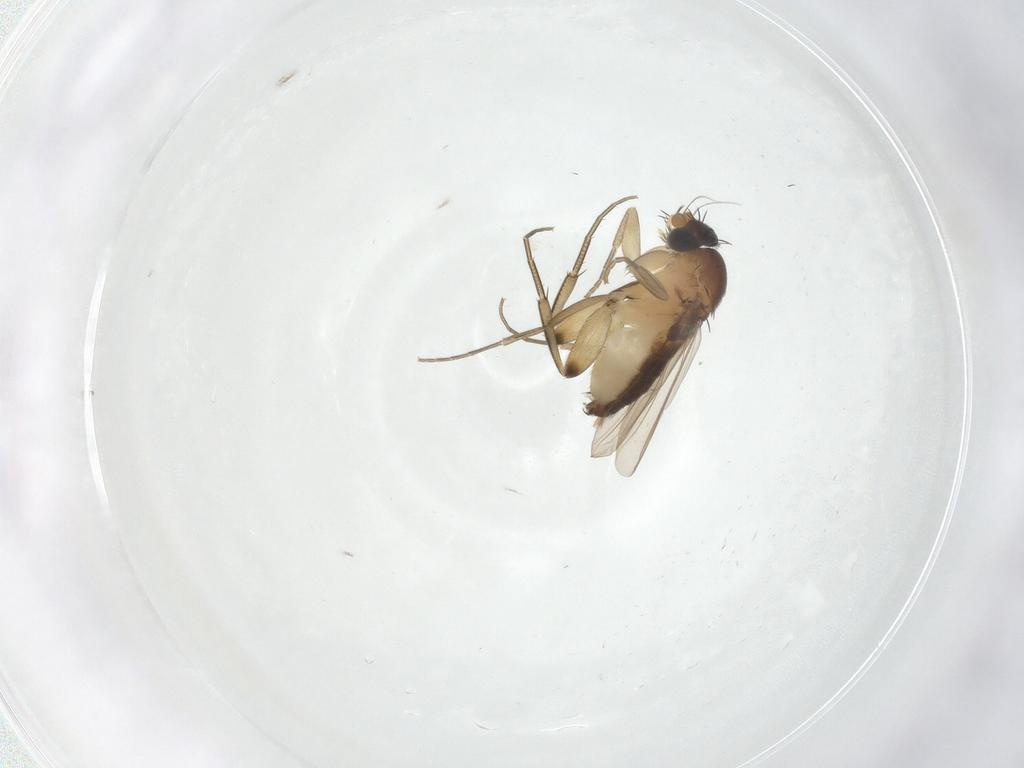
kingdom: Animalia
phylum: Arthropoda
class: Insecta
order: Diptera
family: Phoridae
